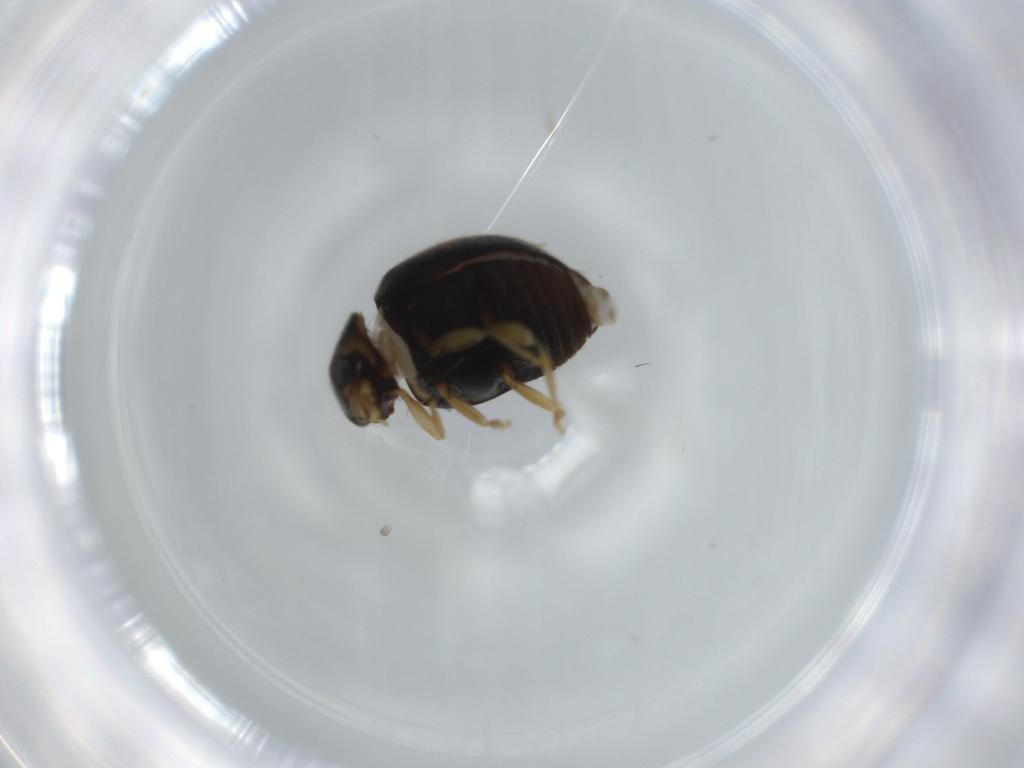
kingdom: Animalia
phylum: Arthropoda
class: Insecta
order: Coleoptera
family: Coccinellidae
